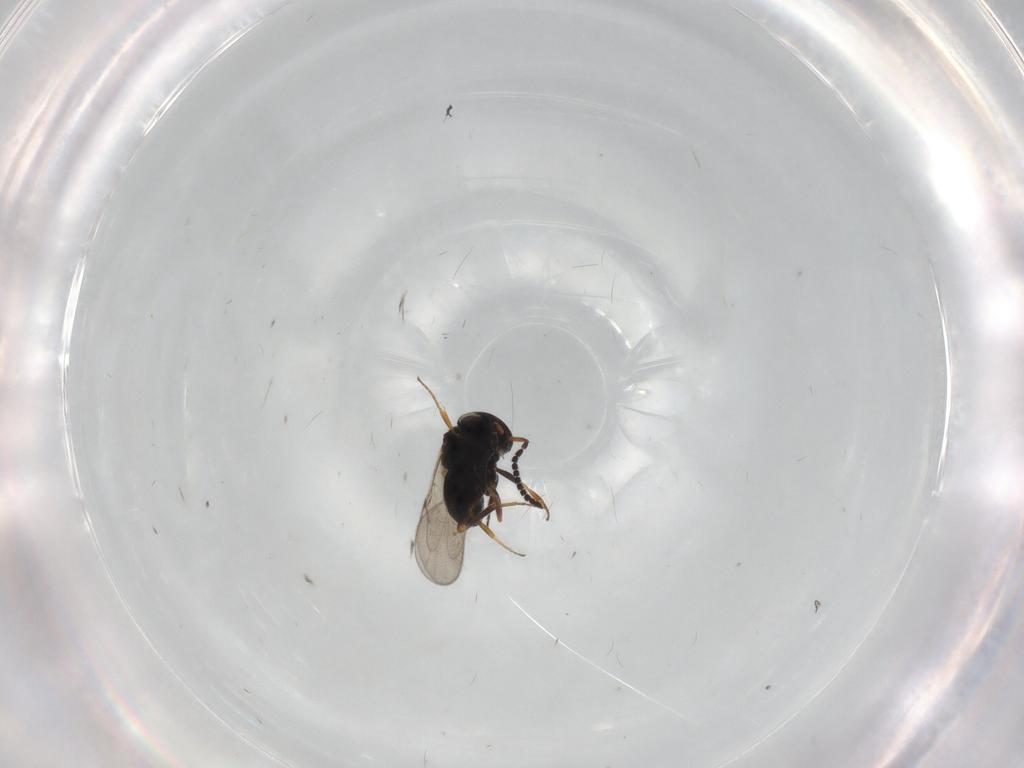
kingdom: Animalia
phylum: Arthropoda
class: Insecta
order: Hymenoptera
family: Scelionidae
